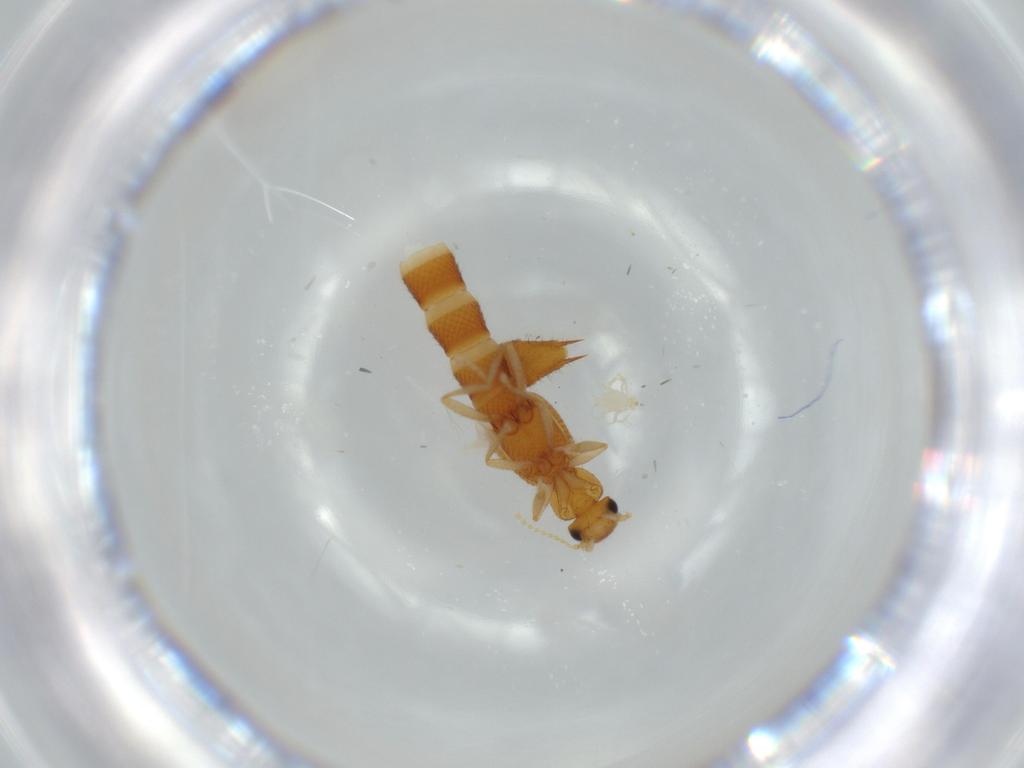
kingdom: Animalia
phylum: Arthropoda
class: Insecta
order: Coleoptera
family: Staphylinidae
